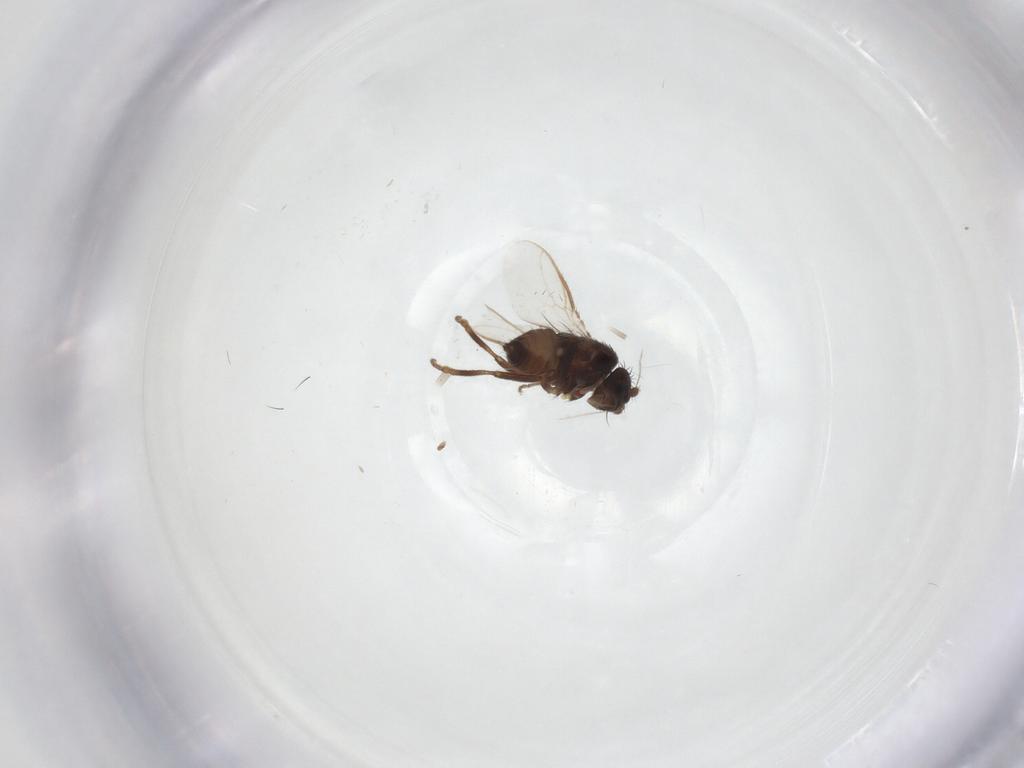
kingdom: Animalia
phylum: Arthropoda
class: Insecta
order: Diptera
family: Sphaeroceridae
